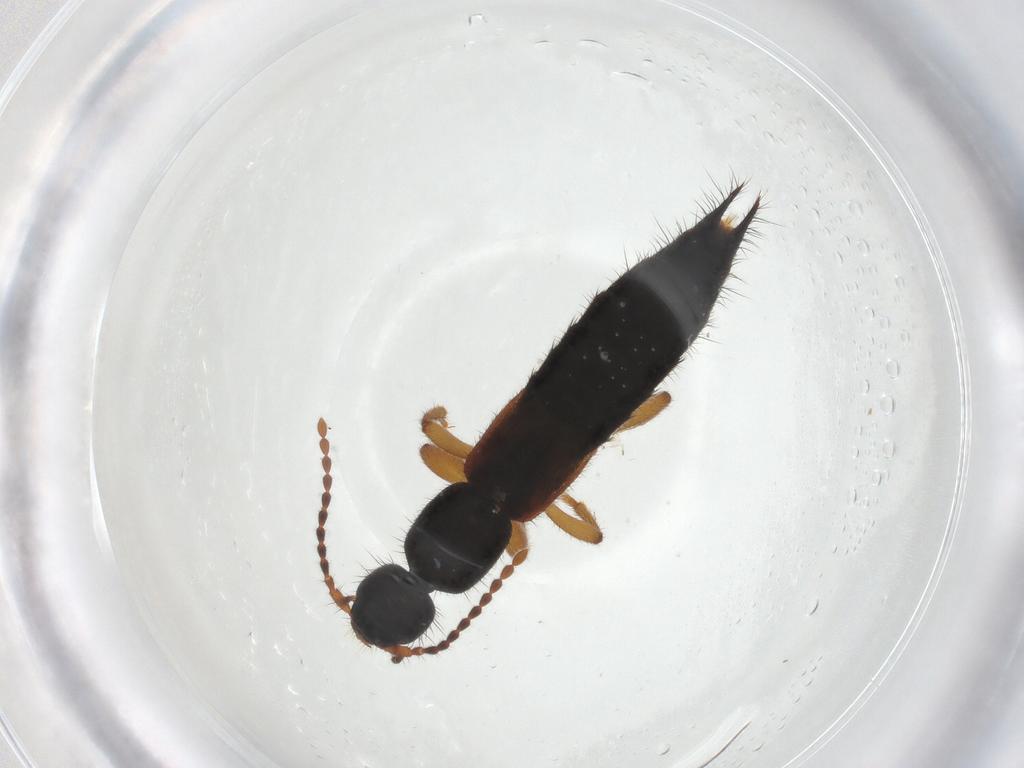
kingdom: Animalia
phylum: Arthropoda
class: Insecta
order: Coleoptera
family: Staphylinidae
